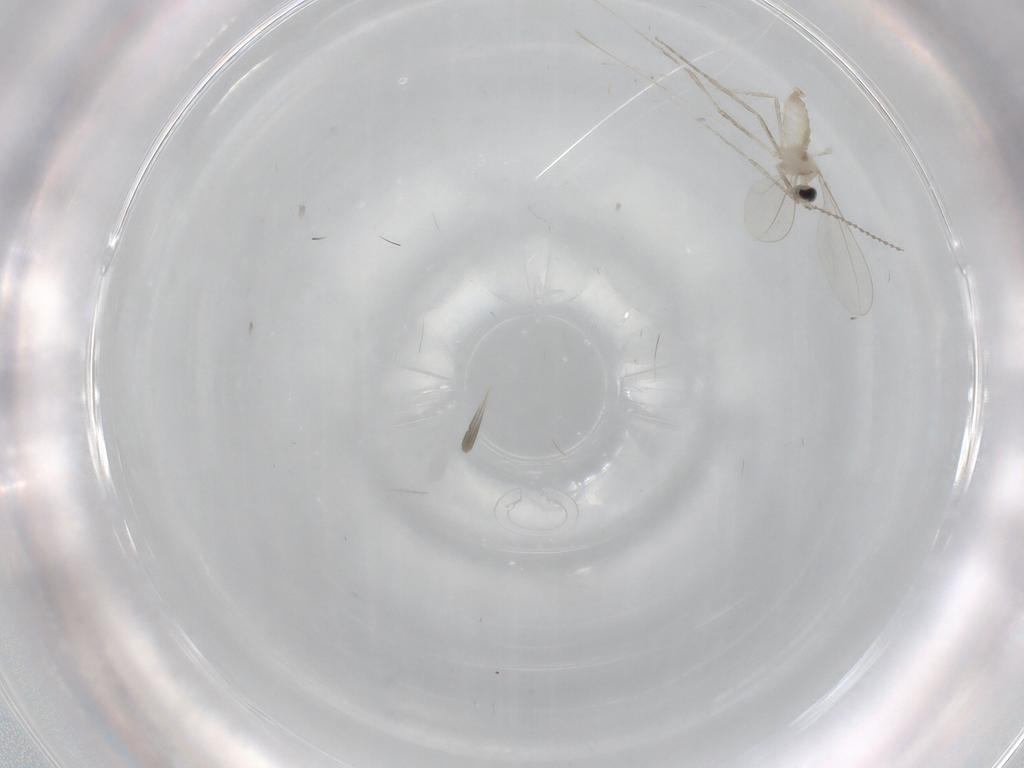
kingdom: Animalia
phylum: Arthropoda
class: Insecta
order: Diptera
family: Cecidomyiidae
